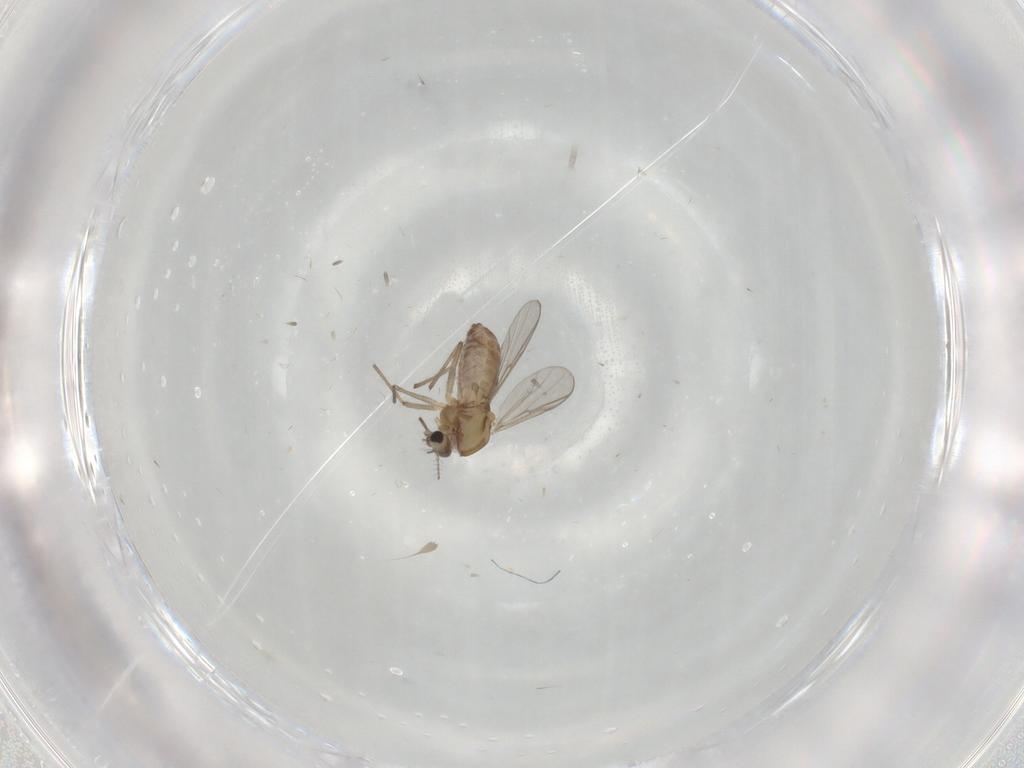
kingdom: Animalia
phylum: Arthropoda
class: Insecta
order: Diptera
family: Chironomidae
